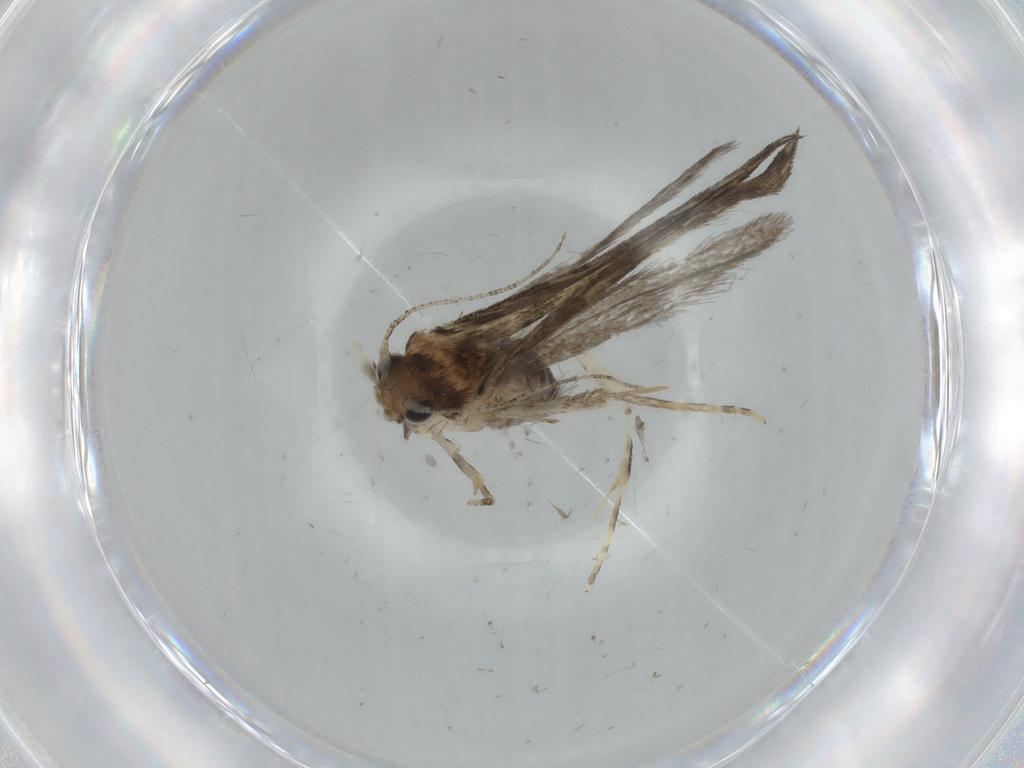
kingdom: Animalia
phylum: Arthropoda
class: Insecta
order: Lepidoptera
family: Tineidae
